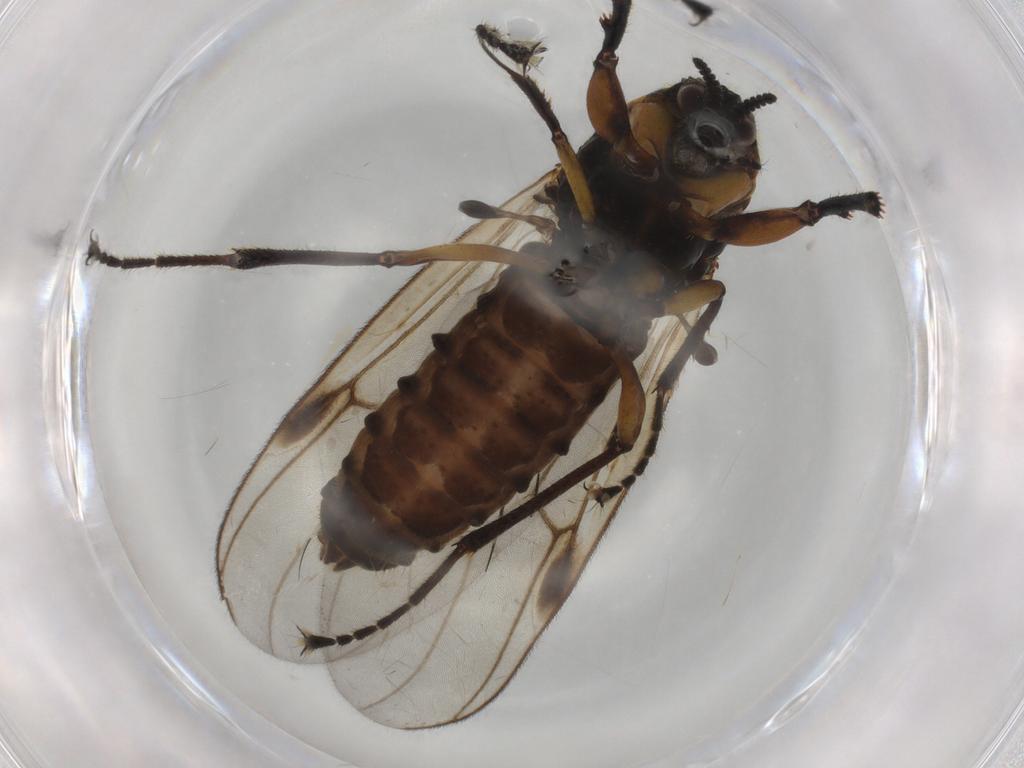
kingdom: Animalia
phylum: Arthropoda
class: Insecta
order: Diptera
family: Bibionidae
